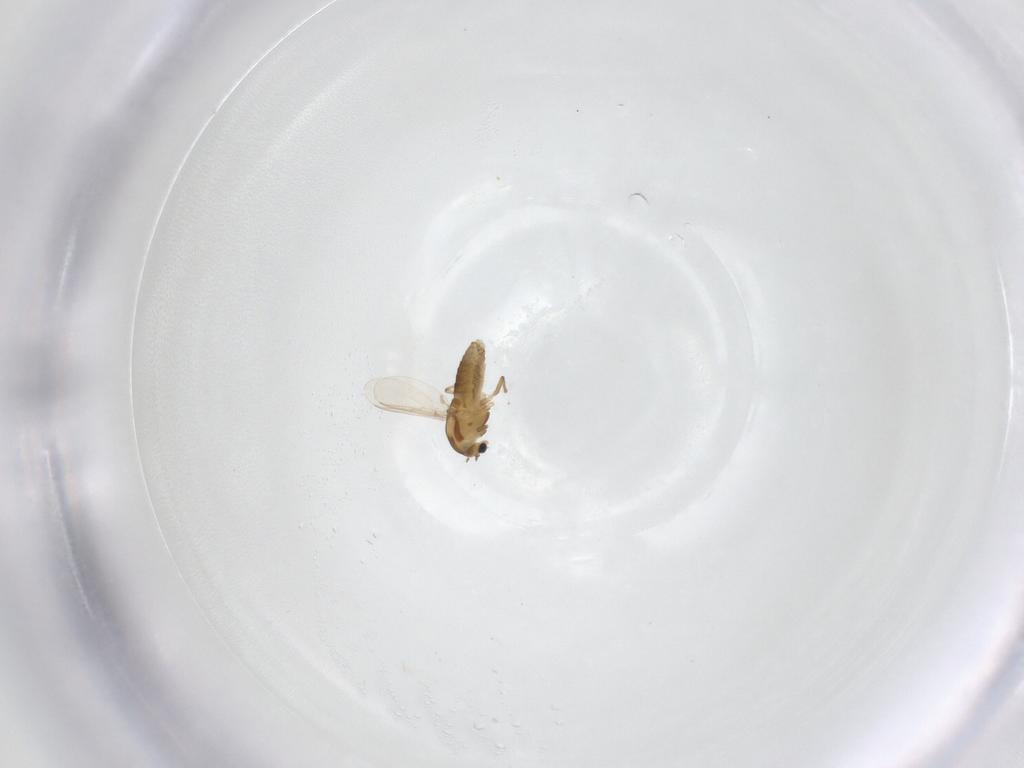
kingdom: Animalia
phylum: Arthropoda
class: Insecta
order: Diptera
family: Chironomidae
